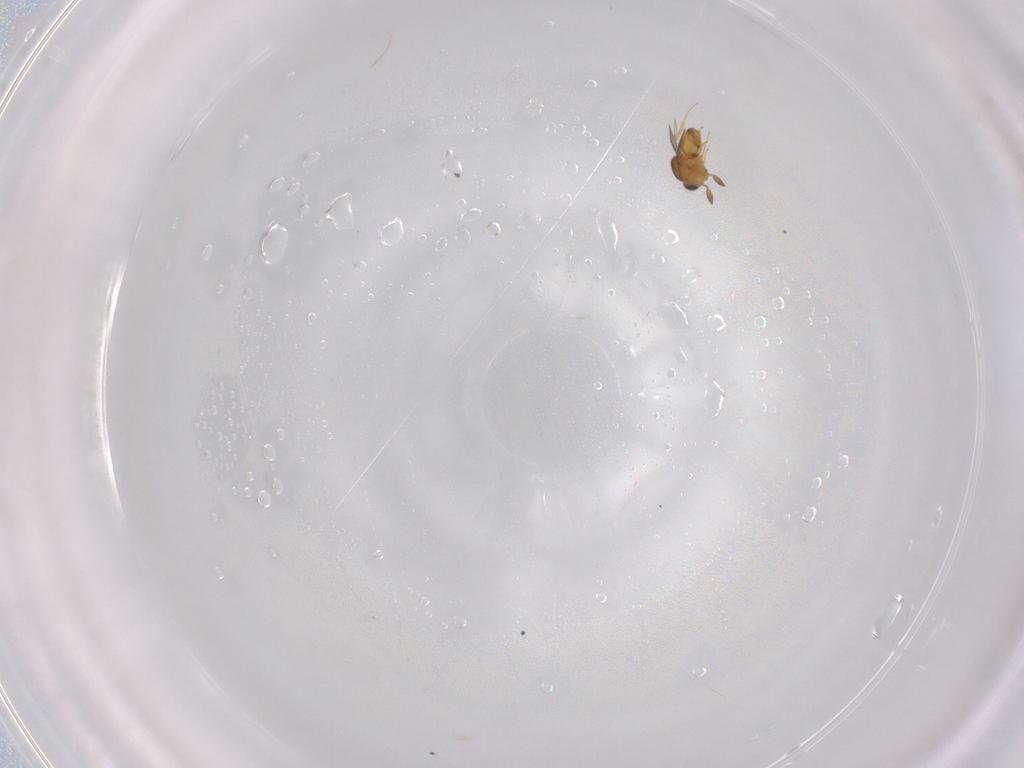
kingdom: Animalia
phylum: Arthropoda
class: Insecta
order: Hymenoptera
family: Scelionidae
